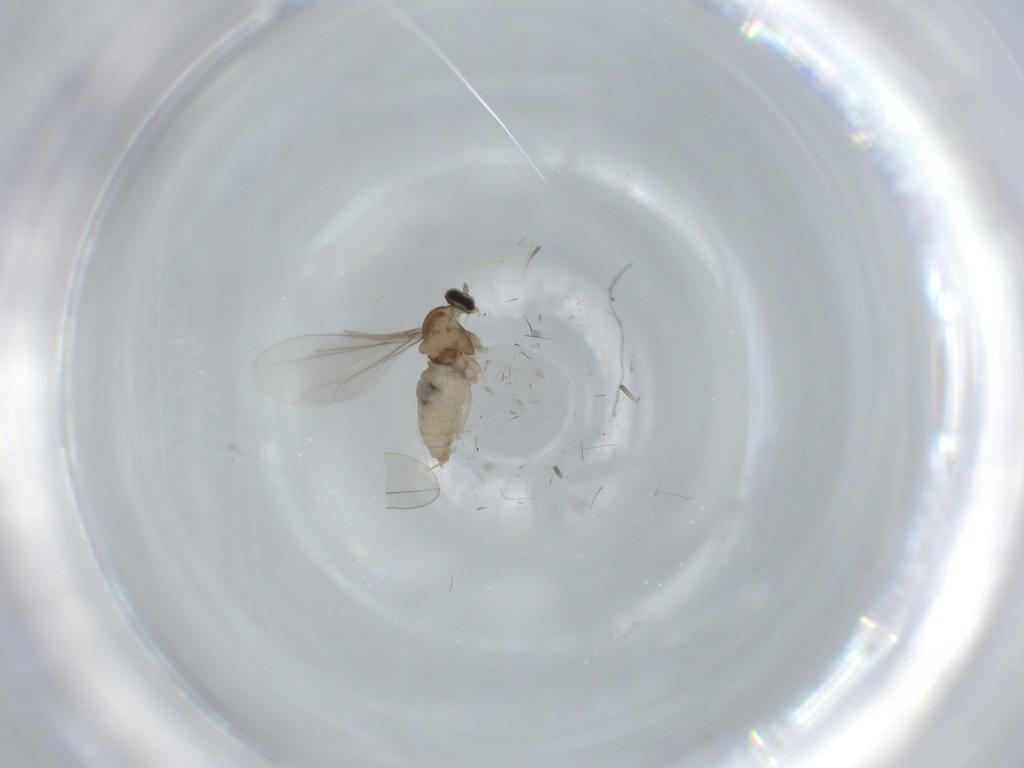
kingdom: Animalia
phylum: Arthropoda
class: Insecta
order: Diptera
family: Cecidomyiidae
